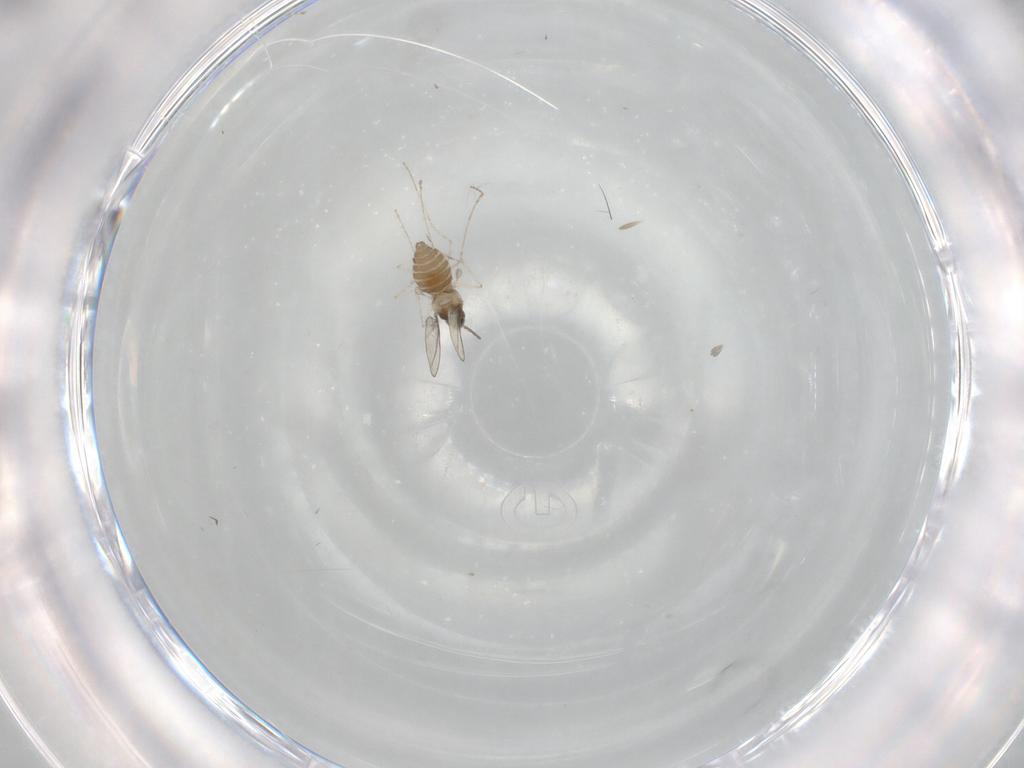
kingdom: Animalia
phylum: Arthropoda
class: Insecta
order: Diptera
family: Cecidomyiidae
